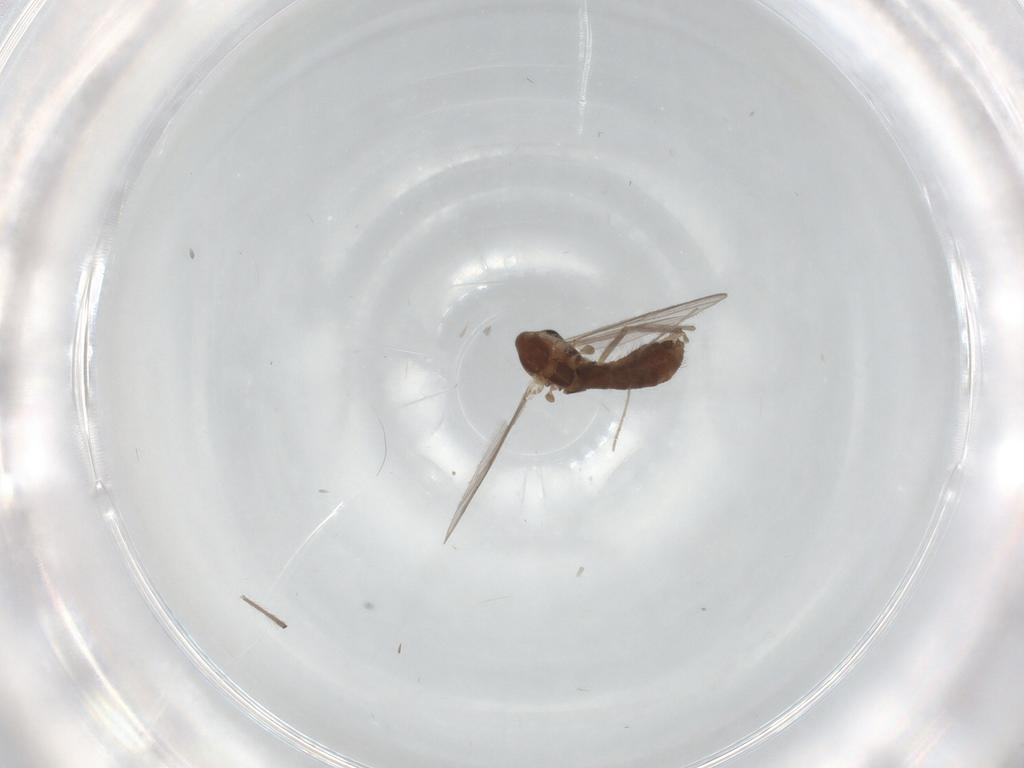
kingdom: Animalia
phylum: Arthropoda
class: Insecta
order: Diptera
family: Chironomidae
